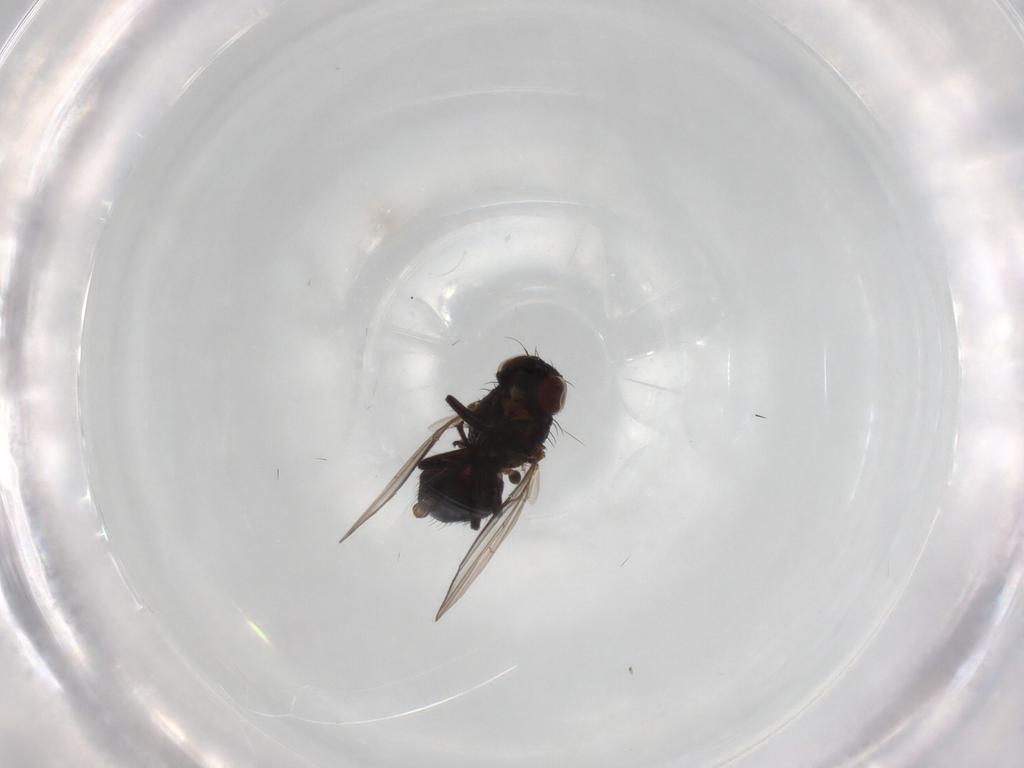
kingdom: Animalia
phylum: Arthropoda
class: Insecta
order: Diptera
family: Agromyzidae
